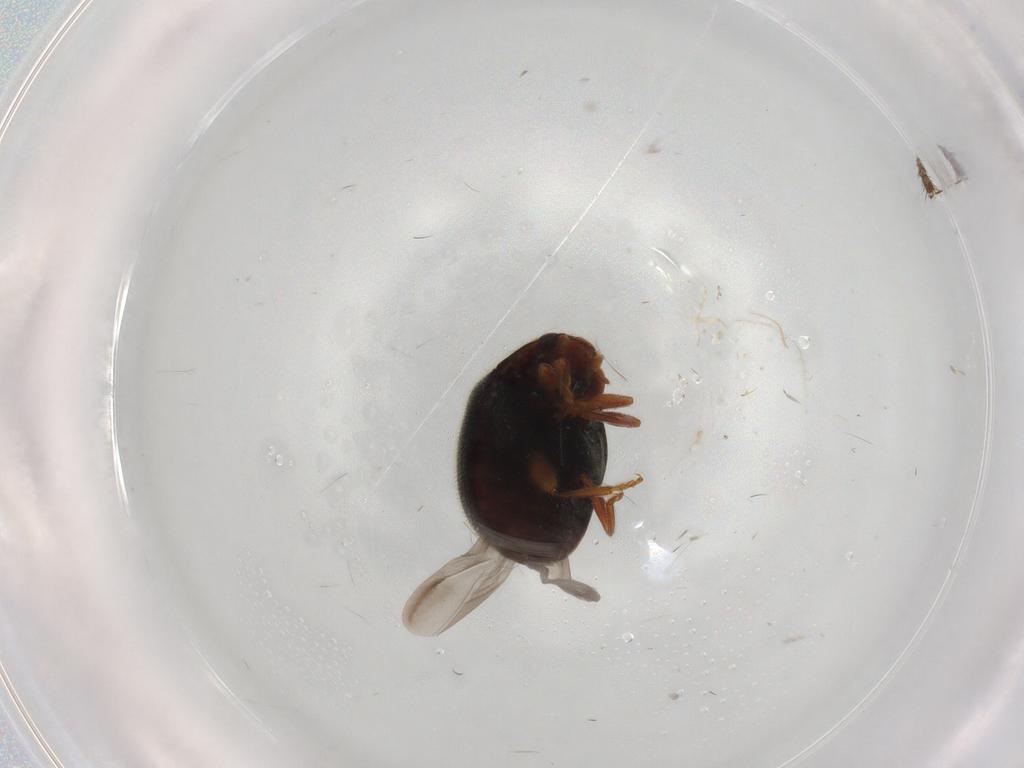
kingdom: Animalia
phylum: Arthropoda
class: Insecta
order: Coleoptera
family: Coccinellidae
